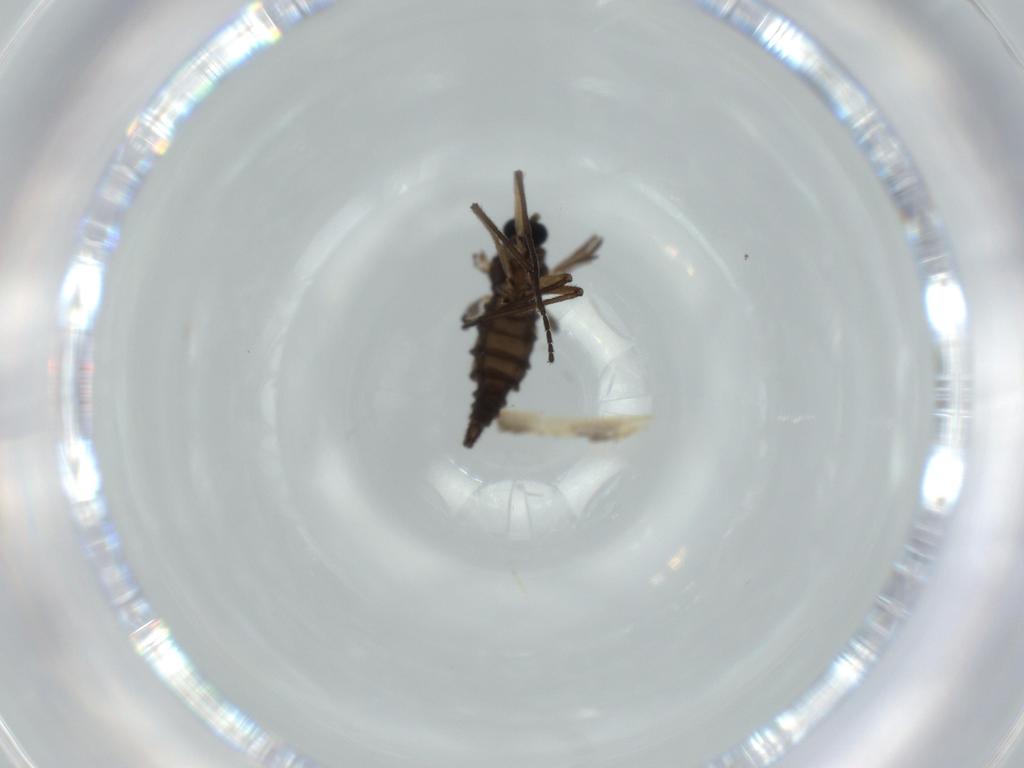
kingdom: Animalia
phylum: Arthropoda
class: Insecta
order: Diptera
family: Sciaridae
